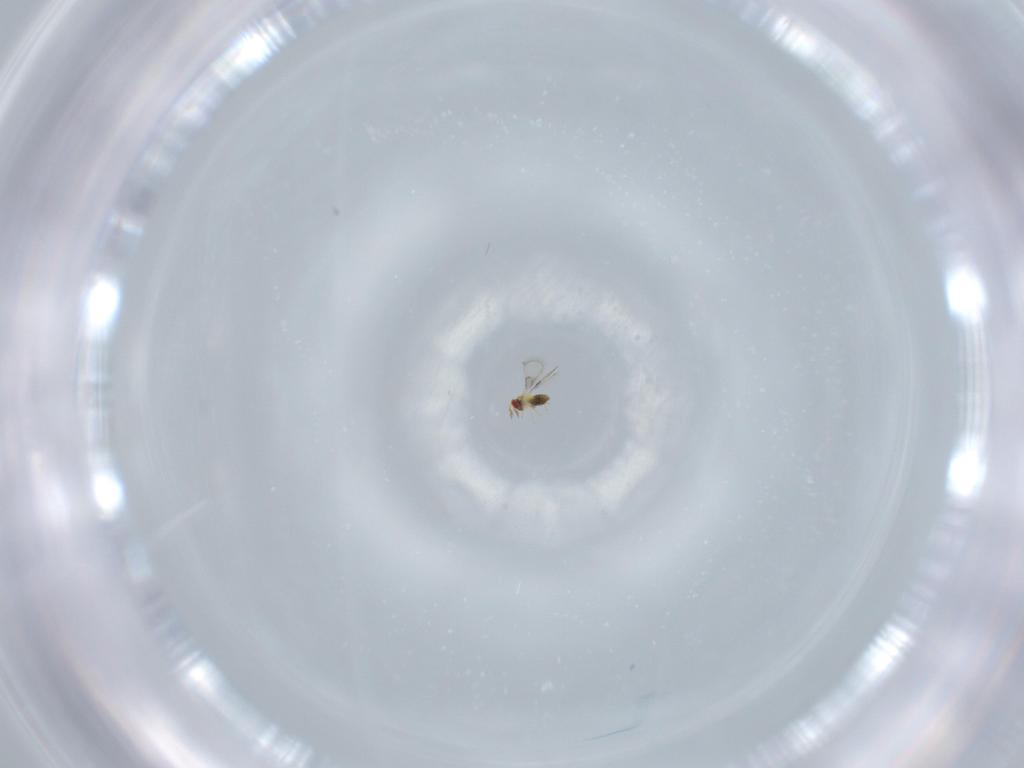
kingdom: Animalia
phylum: Arthropoda
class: Insecta
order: Hymenoptera
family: Trichogrammatidae
